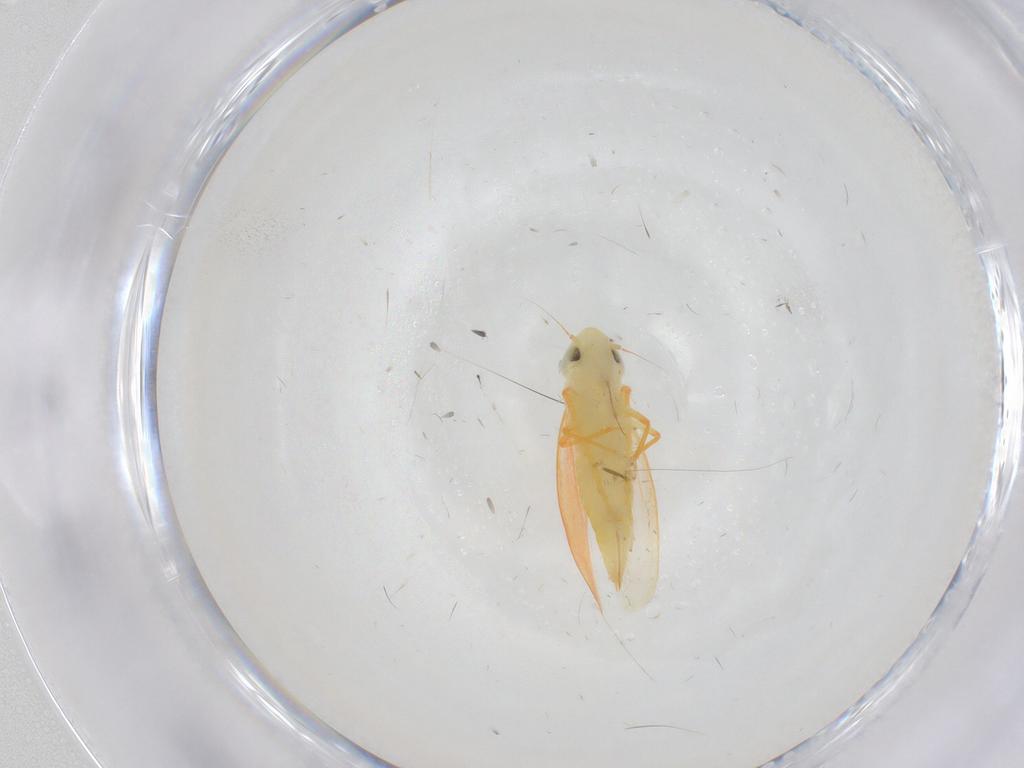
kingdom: Animalia
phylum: Arthropoda
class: Insecta
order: Hemiptera
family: Cicadellidae
